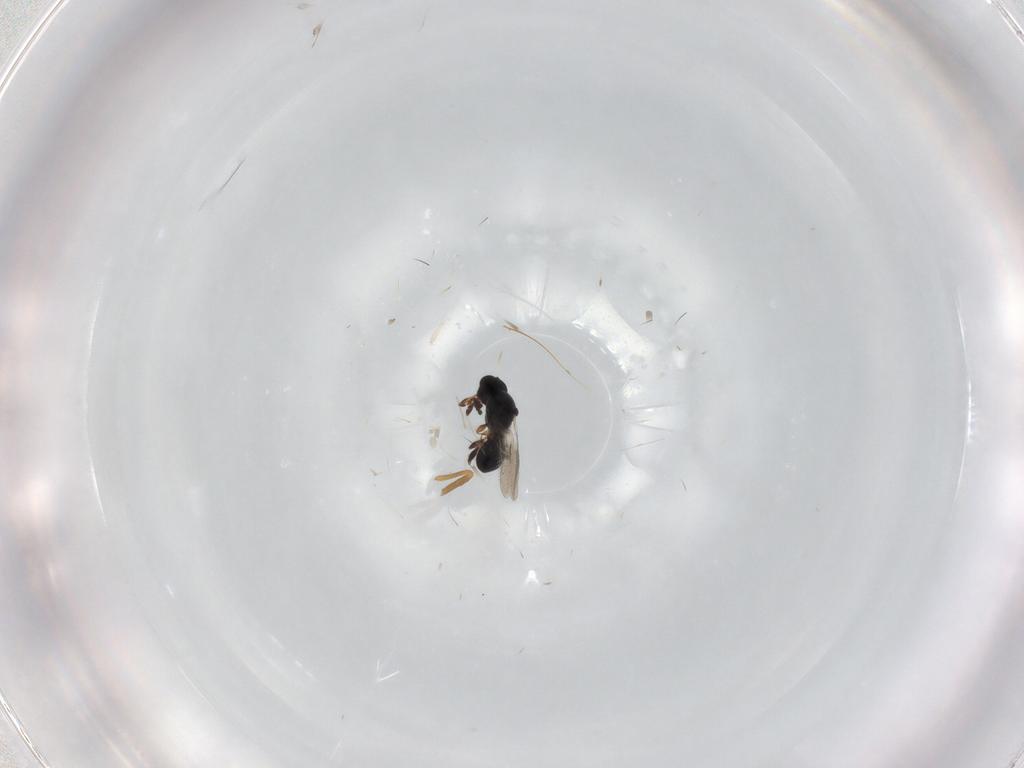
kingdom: Animalia
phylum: Arthropoda
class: Insecta
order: Hymenoptera
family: Platygastridae
